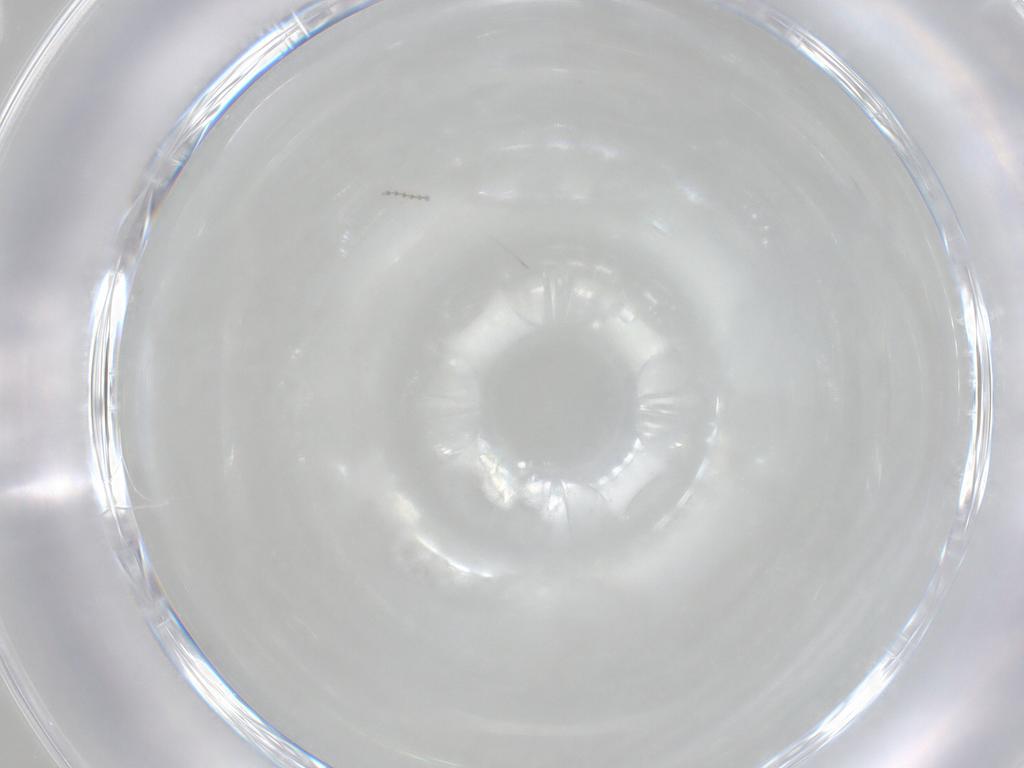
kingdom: Animalia
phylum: Arthropoda
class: Insecta
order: Diptera
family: Cecidomyiidae
